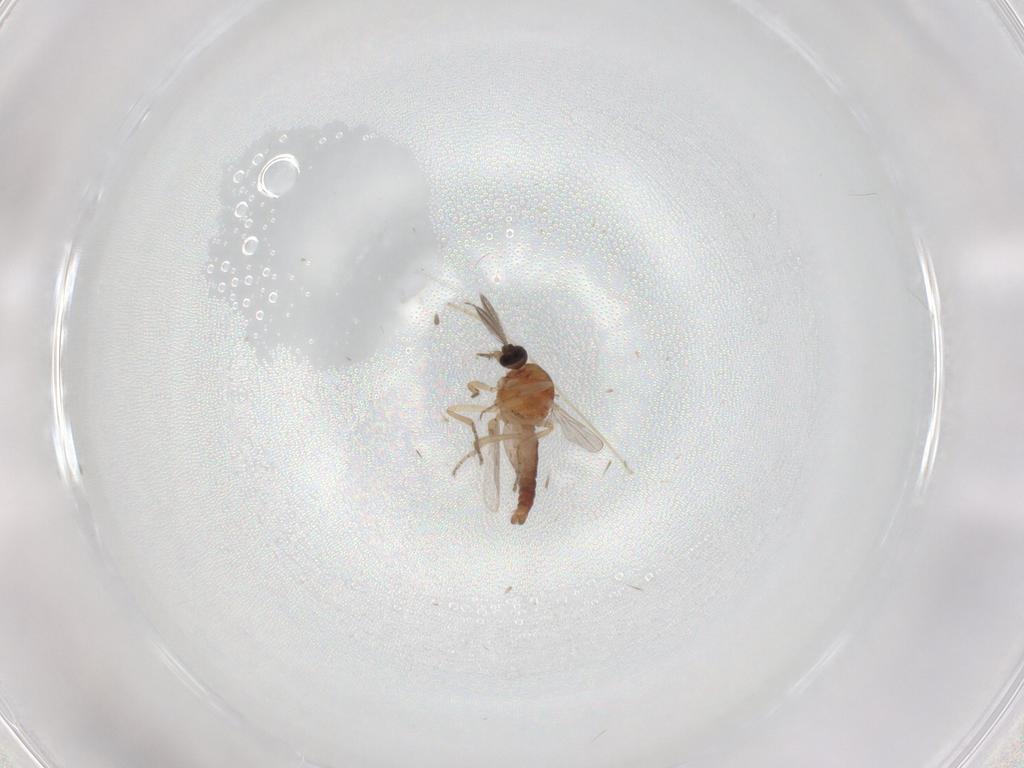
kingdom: Animalia
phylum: Arthropoda
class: Insecta
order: Diptera
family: Ceratopogonidae
